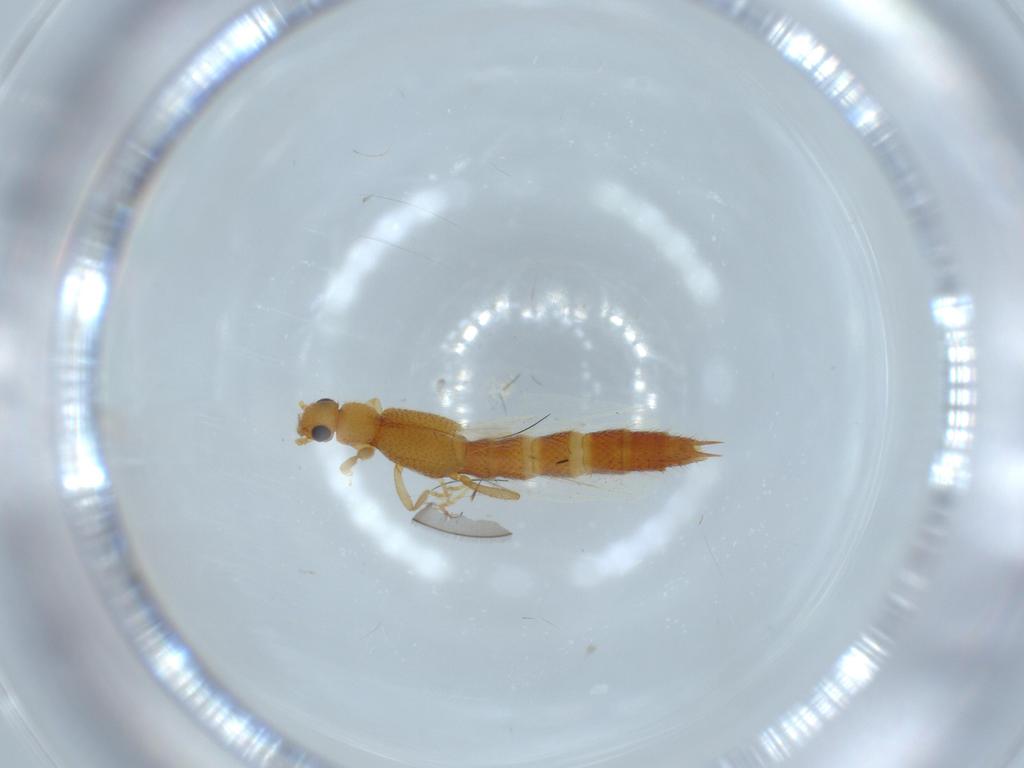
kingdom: Animalia
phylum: Arthropoda
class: Insecta
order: Coleoptera
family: Staphylinidae
